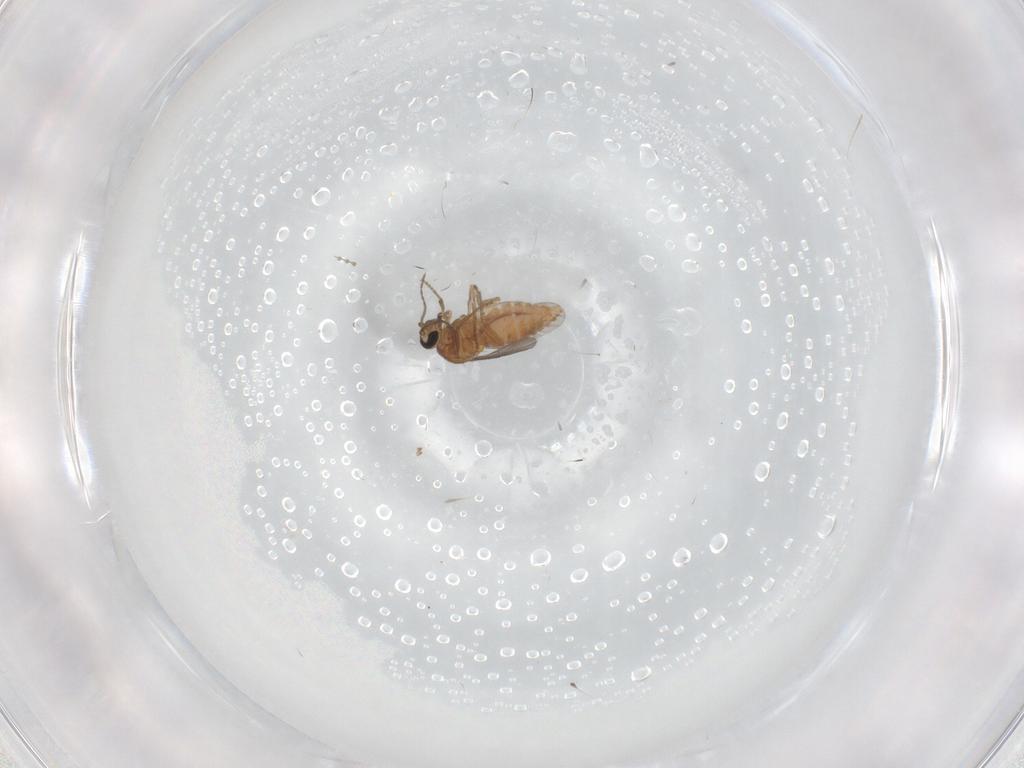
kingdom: Animalia
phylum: Arthropoda
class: Insecta
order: Diptera
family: Ceratopogonidae
